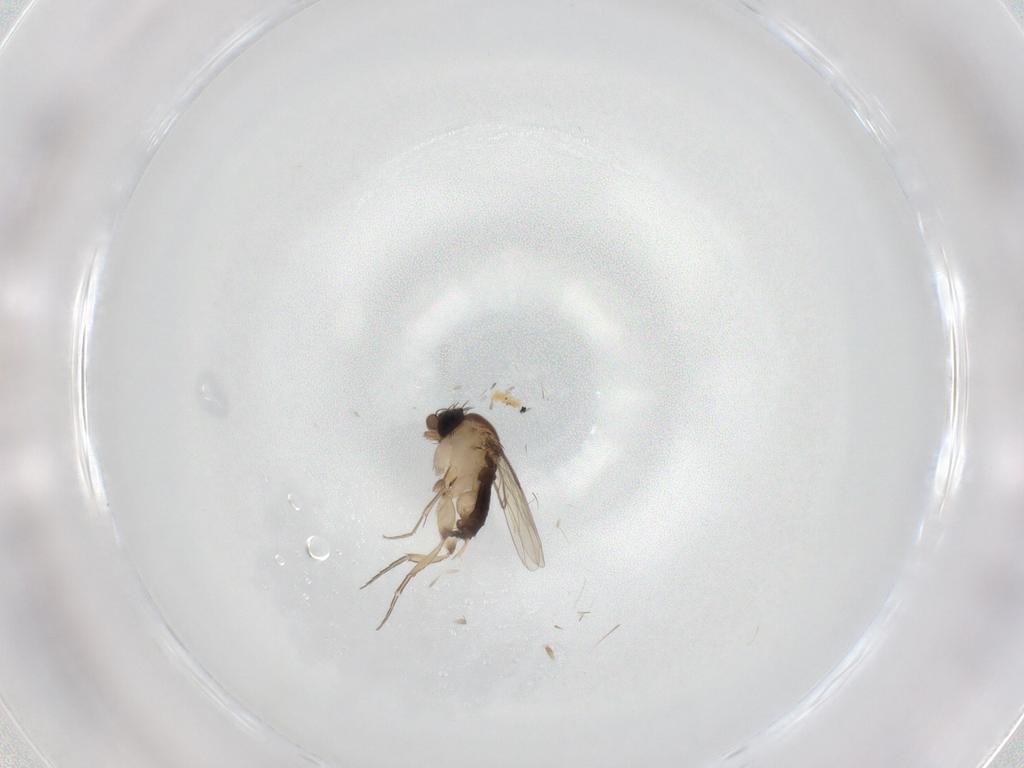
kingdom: Animalia
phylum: Arthropoda
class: Insecta
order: Diptera
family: Phoridae
